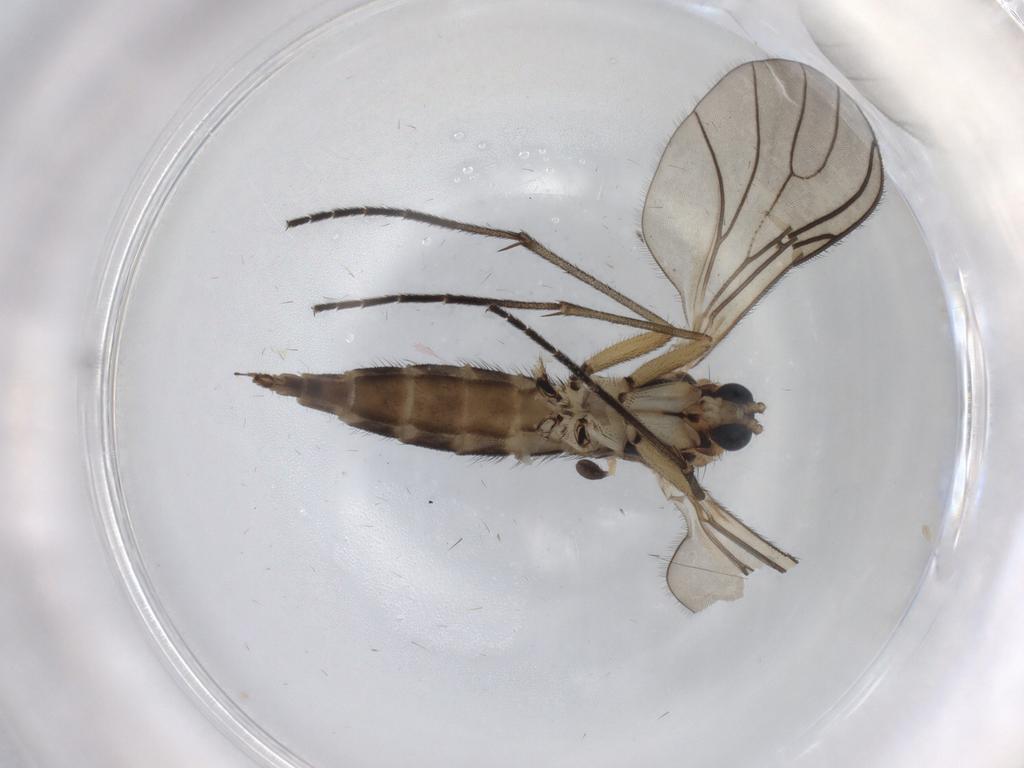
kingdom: Animalia
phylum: Arthropoda
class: Insecta
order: Diptera
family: Sciaridae
